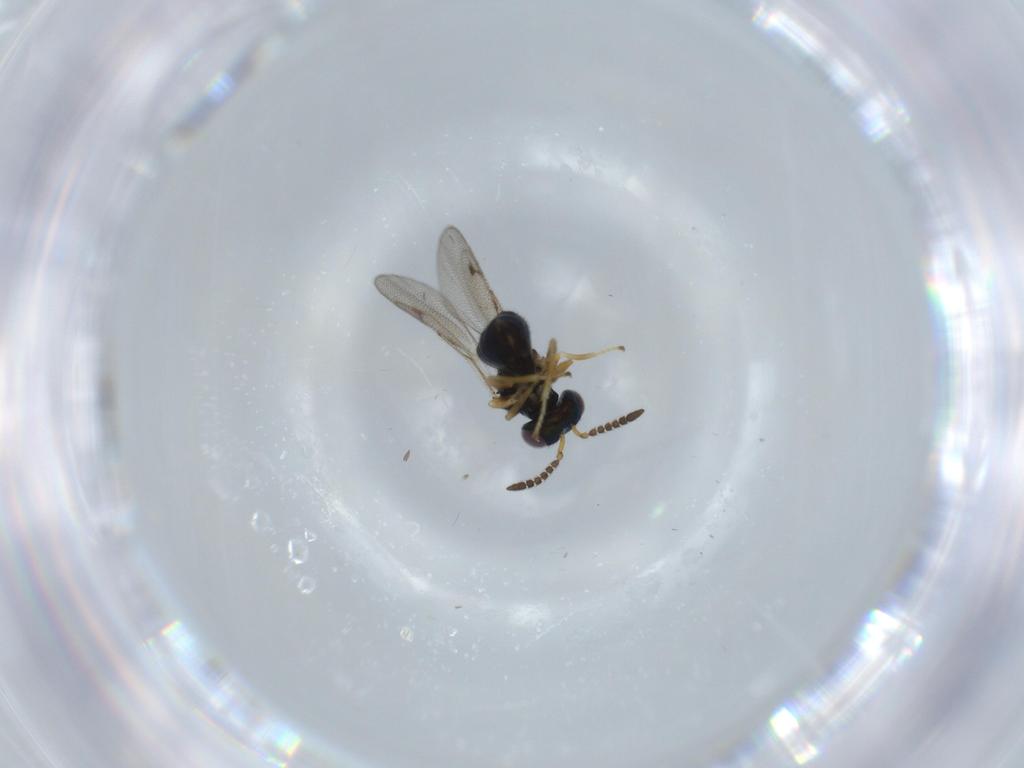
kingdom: Animalia
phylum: Arthropoda
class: Insecta
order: Hymenoptera
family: Pirenidae
